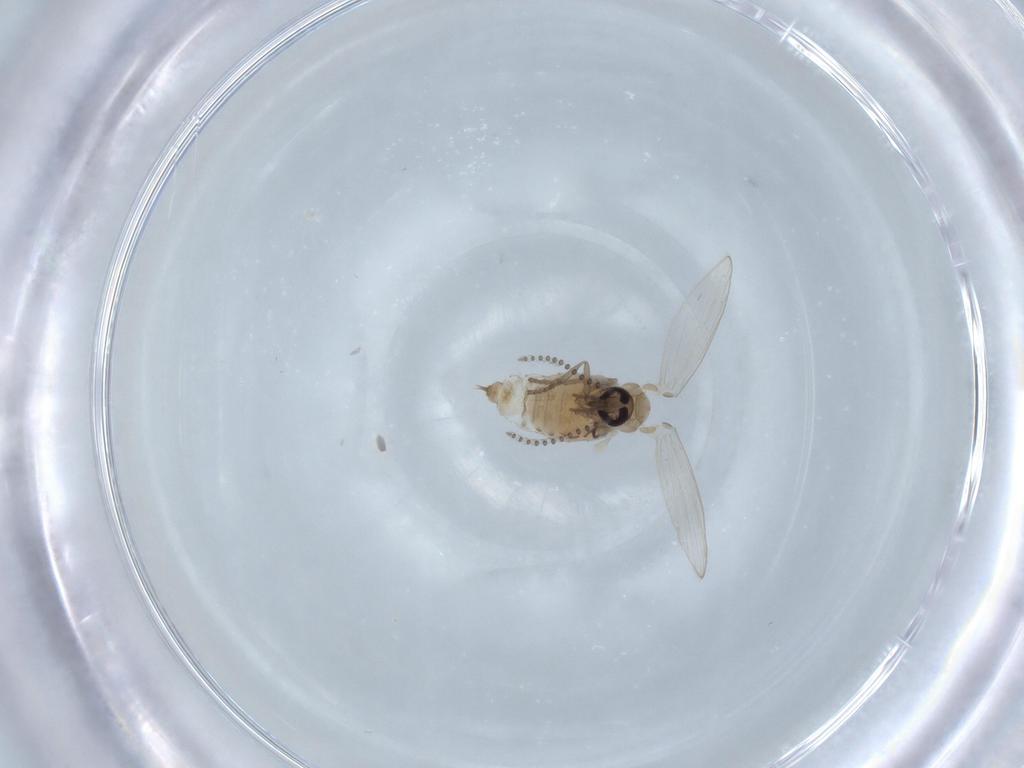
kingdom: Animalia
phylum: Arthropoda
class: Insecta
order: Diptera
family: Psychodidae
